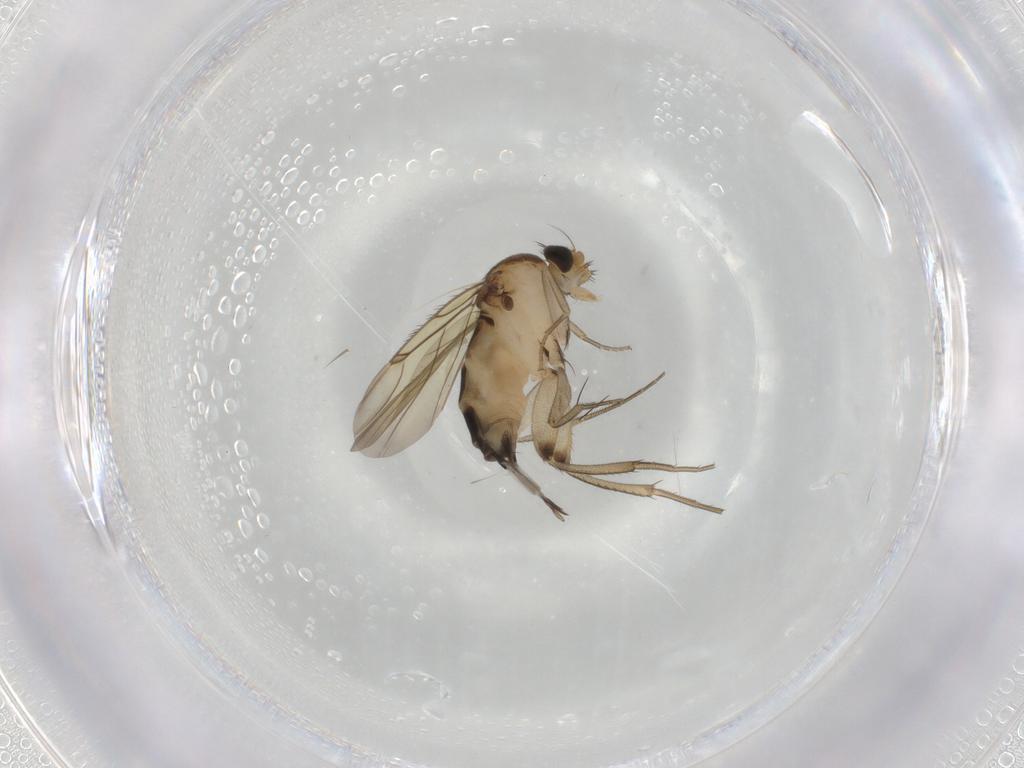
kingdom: Animalia
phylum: Arthropoda
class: Insecta
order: Diptera
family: Phoridae
